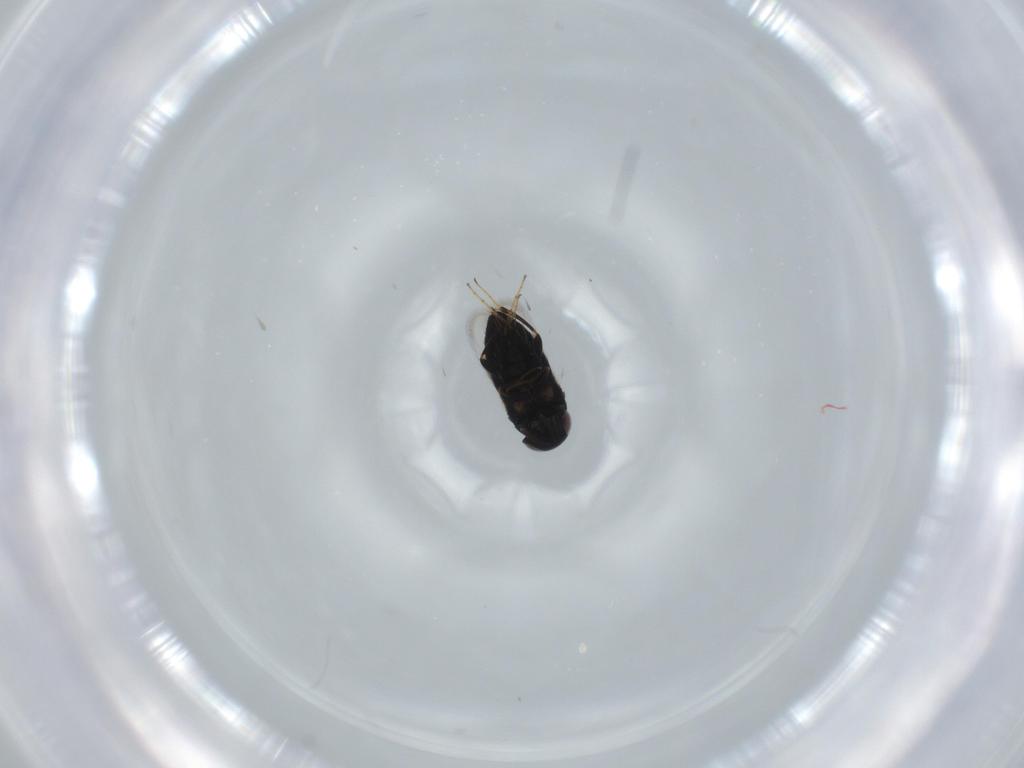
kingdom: Animalia
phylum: Arthropoda
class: Insecta
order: Hymenoptera
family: Signiphoridae
